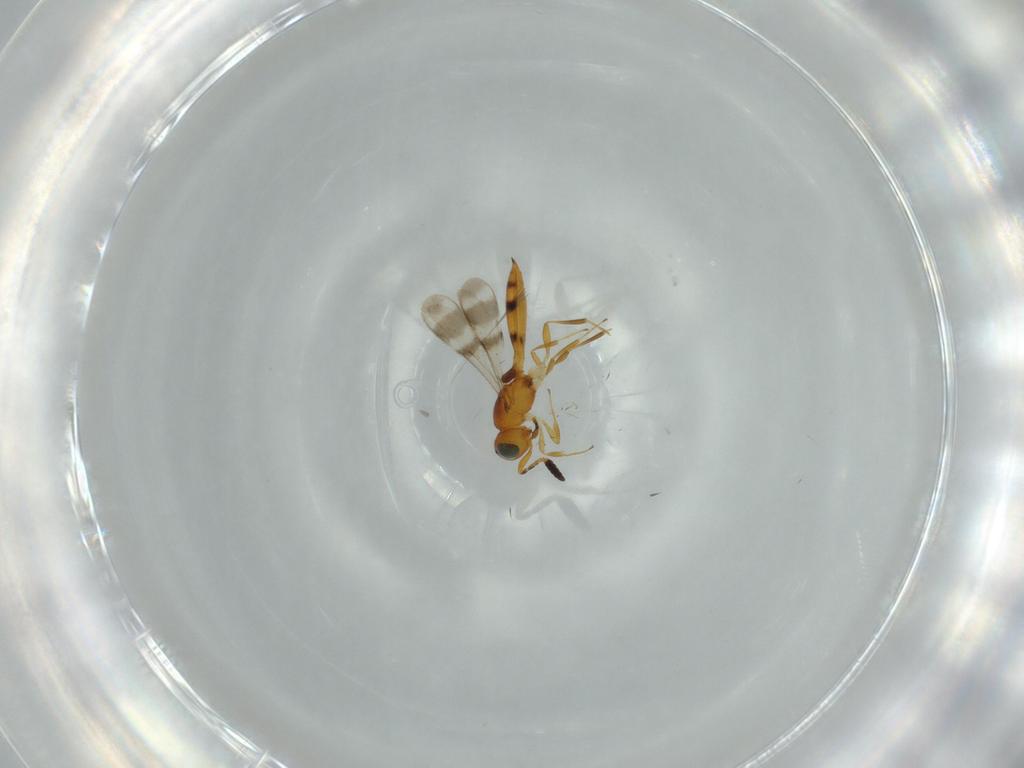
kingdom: Animalia
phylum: Arthropoda
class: Insecta
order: Hymenoptera
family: Scelionidae
